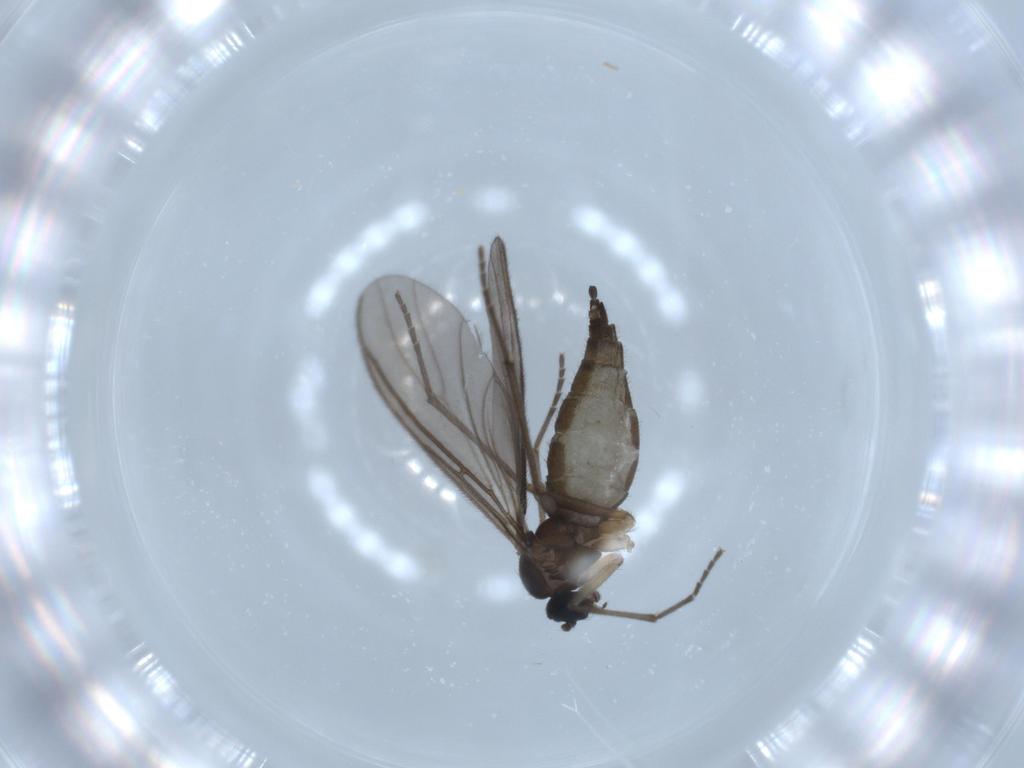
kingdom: Animalia
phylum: Arthropoda
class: Insecta
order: Diptera
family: Sciaridae
